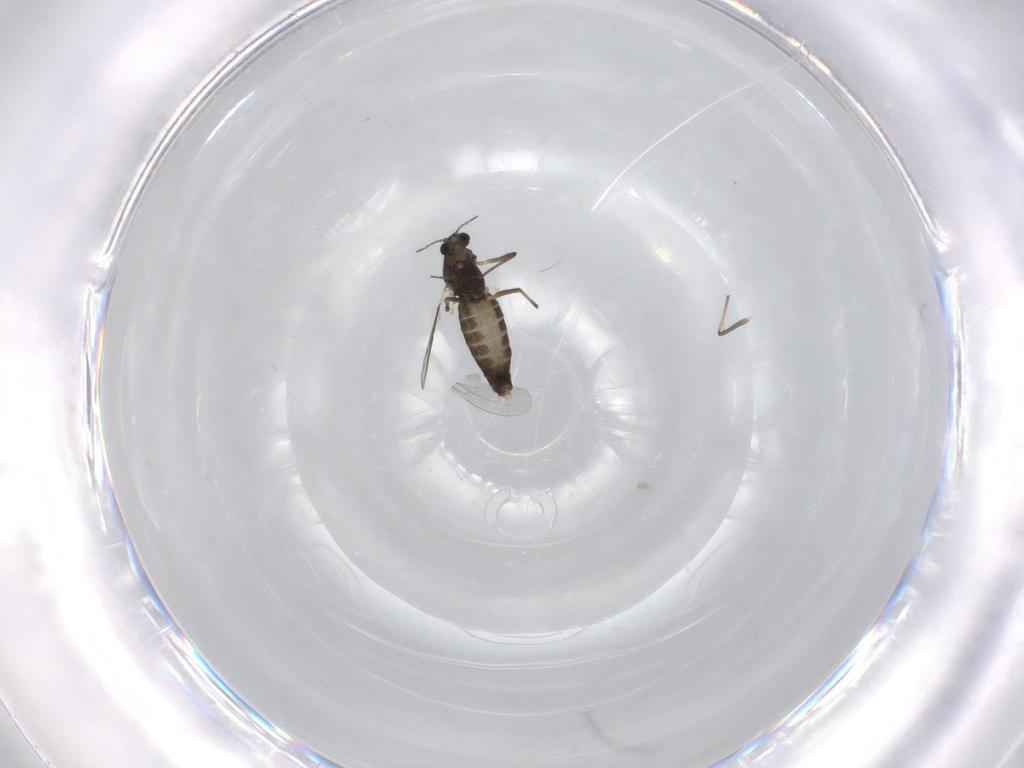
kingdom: Animalia
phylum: Arthropoda
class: Insecta
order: Diptera
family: Chironomidae
